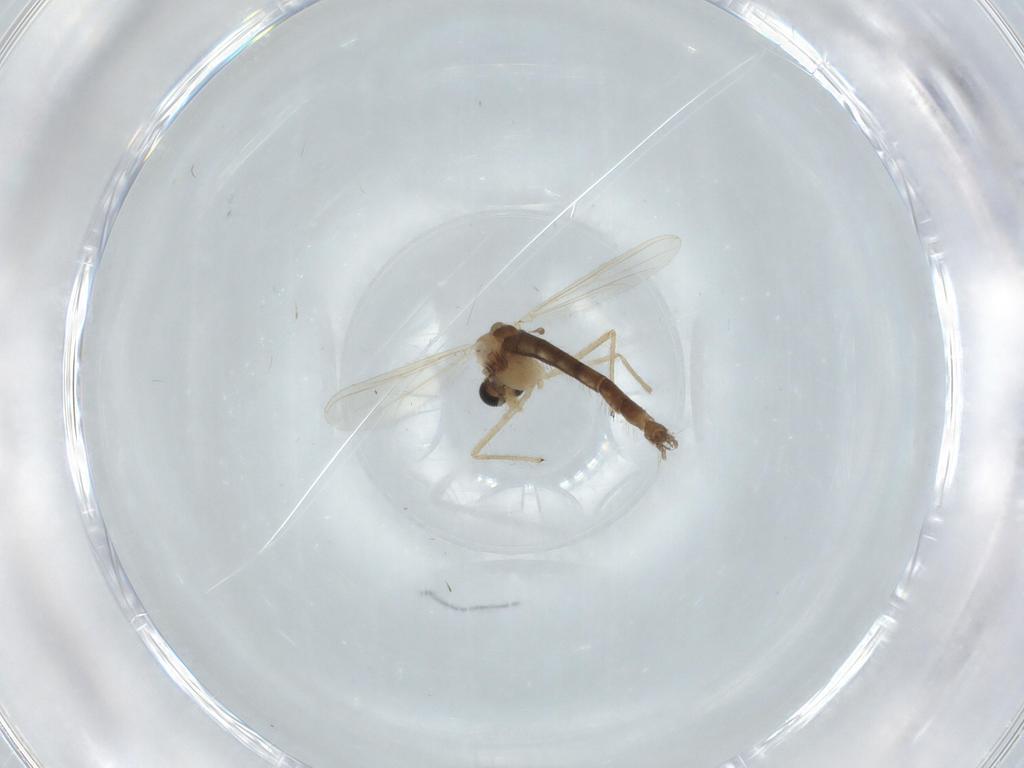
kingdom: Animalia
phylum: Arthropoda
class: Insecta
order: Diptera
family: Chironomidae
